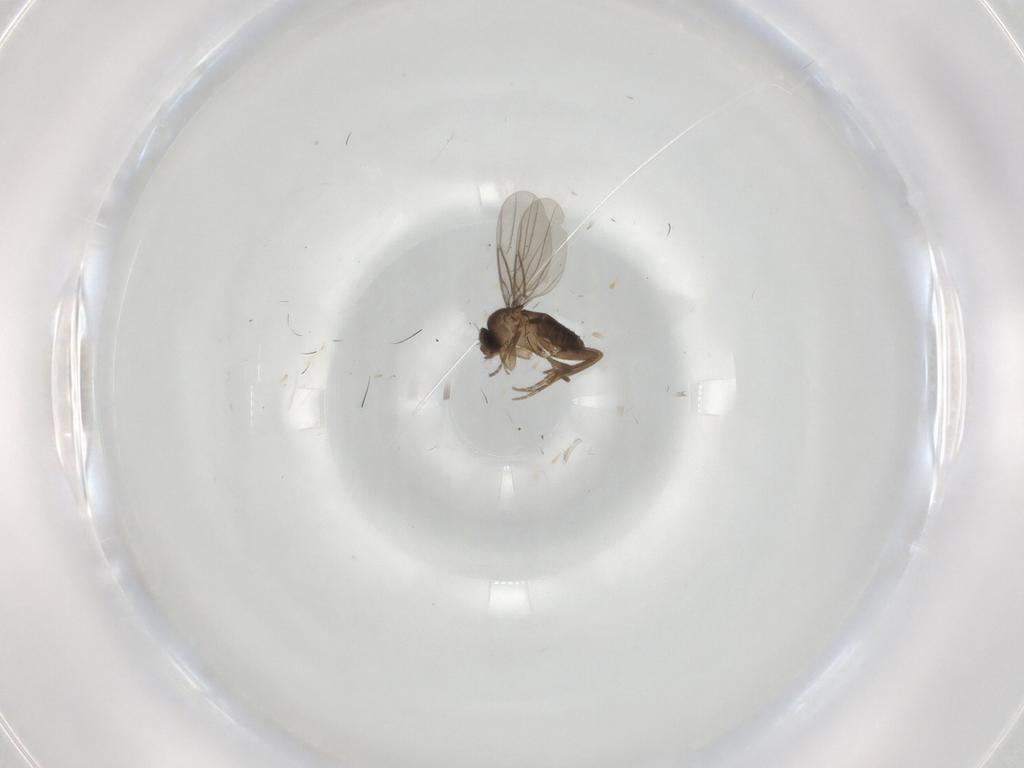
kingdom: Animalia
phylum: Arthropoda
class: Insecta
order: Diptera
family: Phoridae
